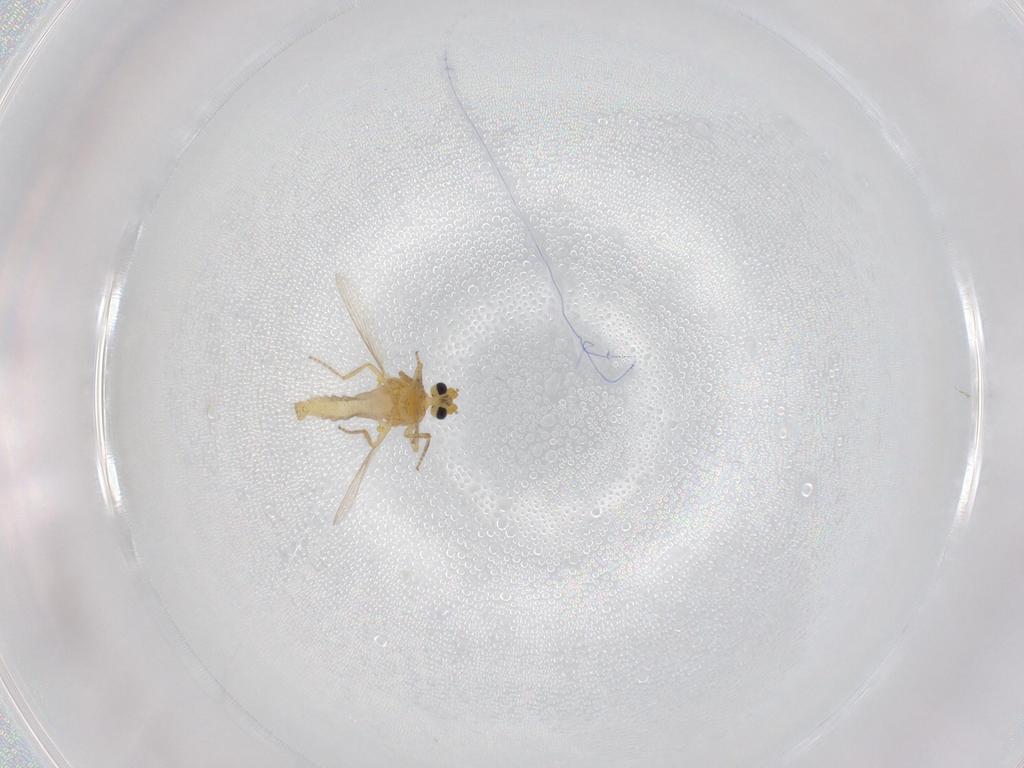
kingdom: Animalia
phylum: Arthropoda
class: Insecta
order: Diptera
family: Ceratopogonidae
